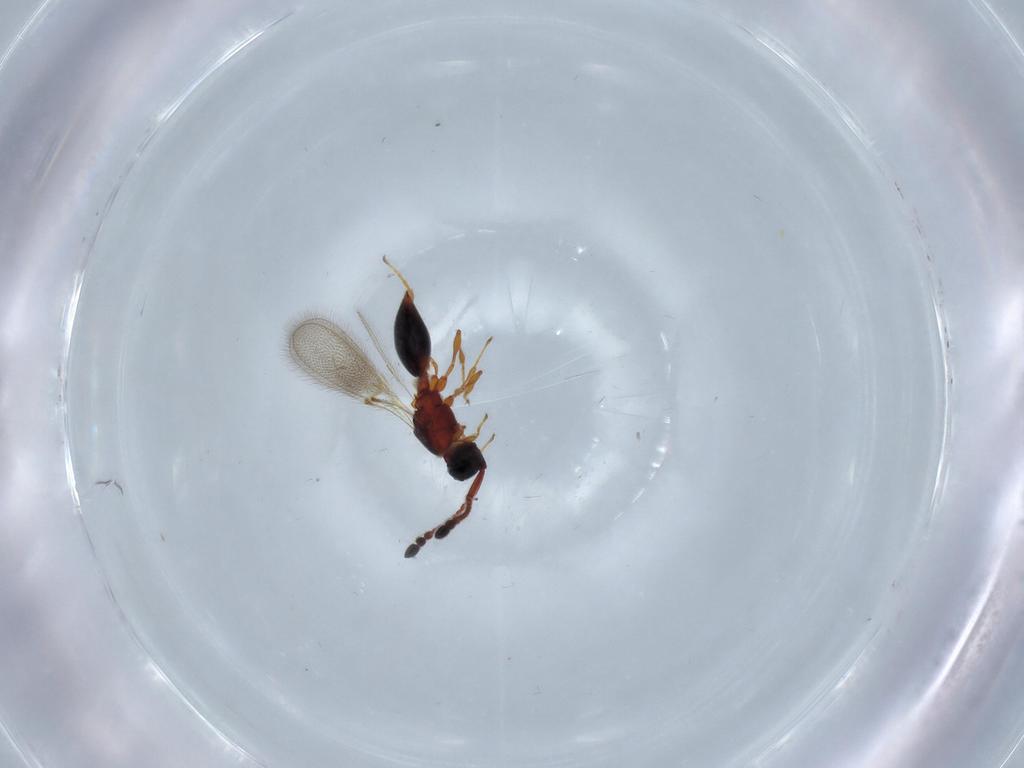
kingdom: Animalia
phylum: Arthropoda
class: Insecta
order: Hymenoptera
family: Diapriidae
